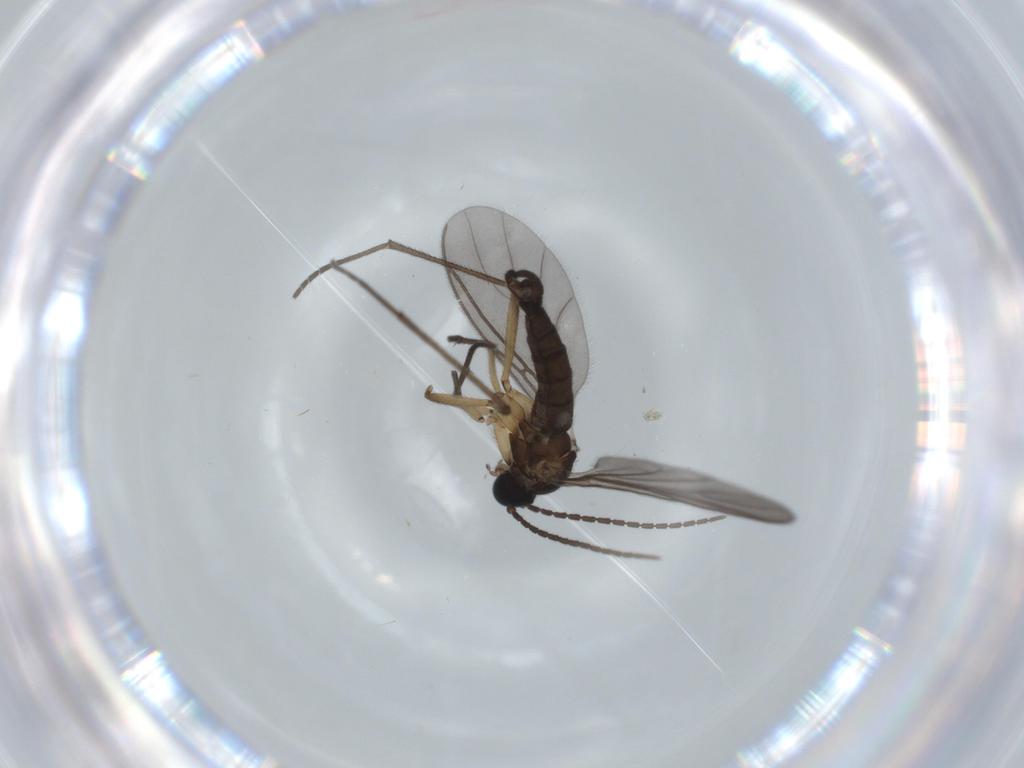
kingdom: Animalia
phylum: Arthropoda
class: Insecta
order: Diptera
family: Sciaridae
